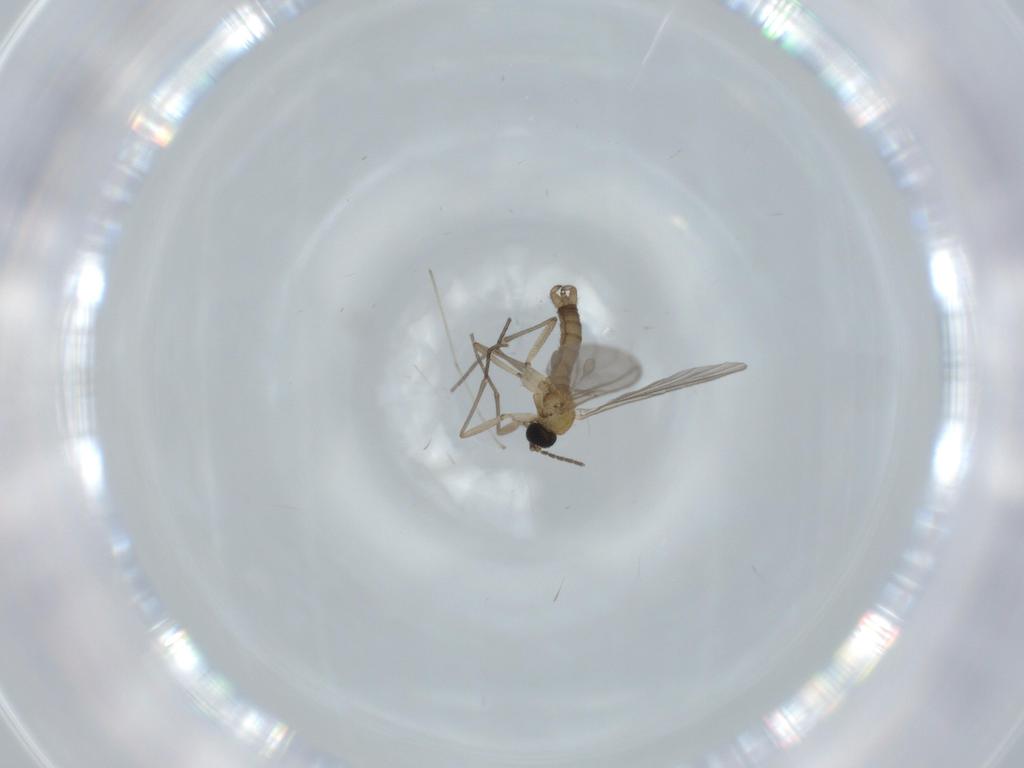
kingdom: Animalia
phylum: Arthropoda
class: Insecta
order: Diptera
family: Sciaridae
